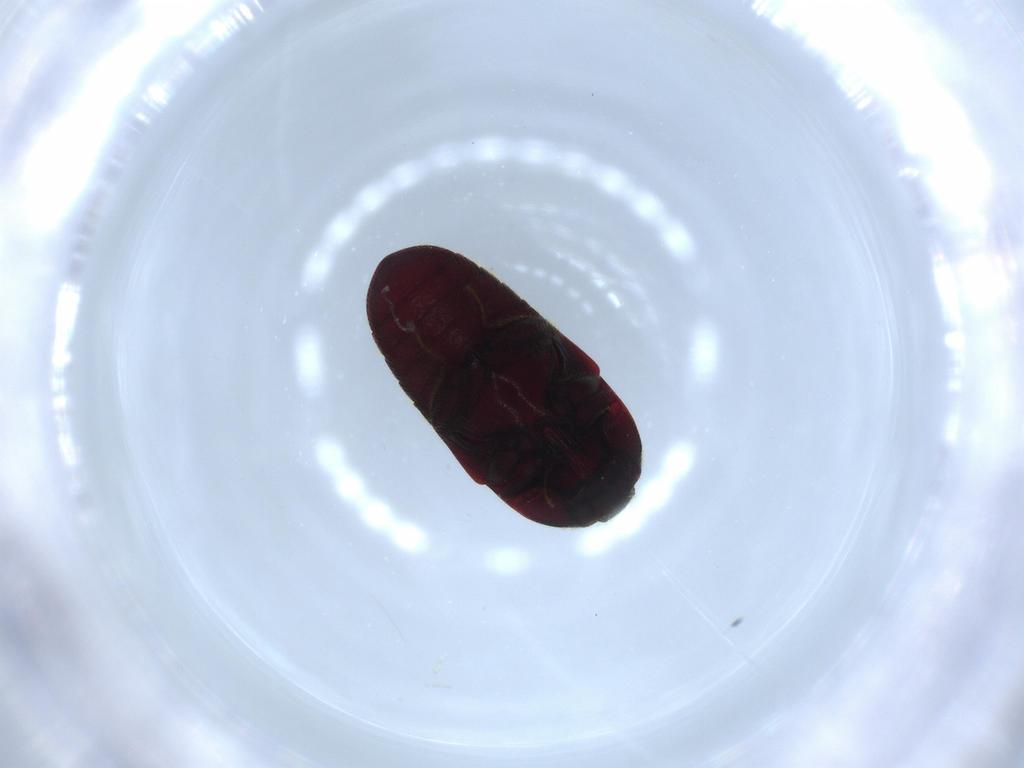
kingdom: Animalia
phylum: Arthropoda
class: Insecta
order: Coleoptera
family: Throscidae
